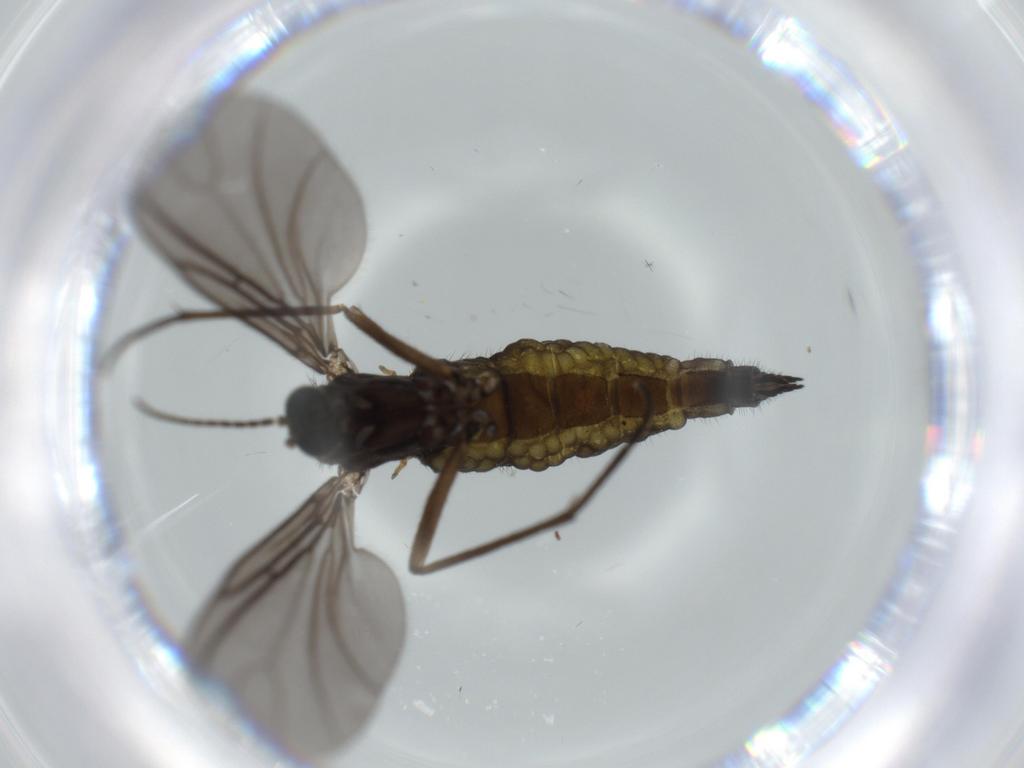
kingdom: Animalia
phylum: Arthropoda
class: Insecta
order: Diptera
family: Sciaridae
